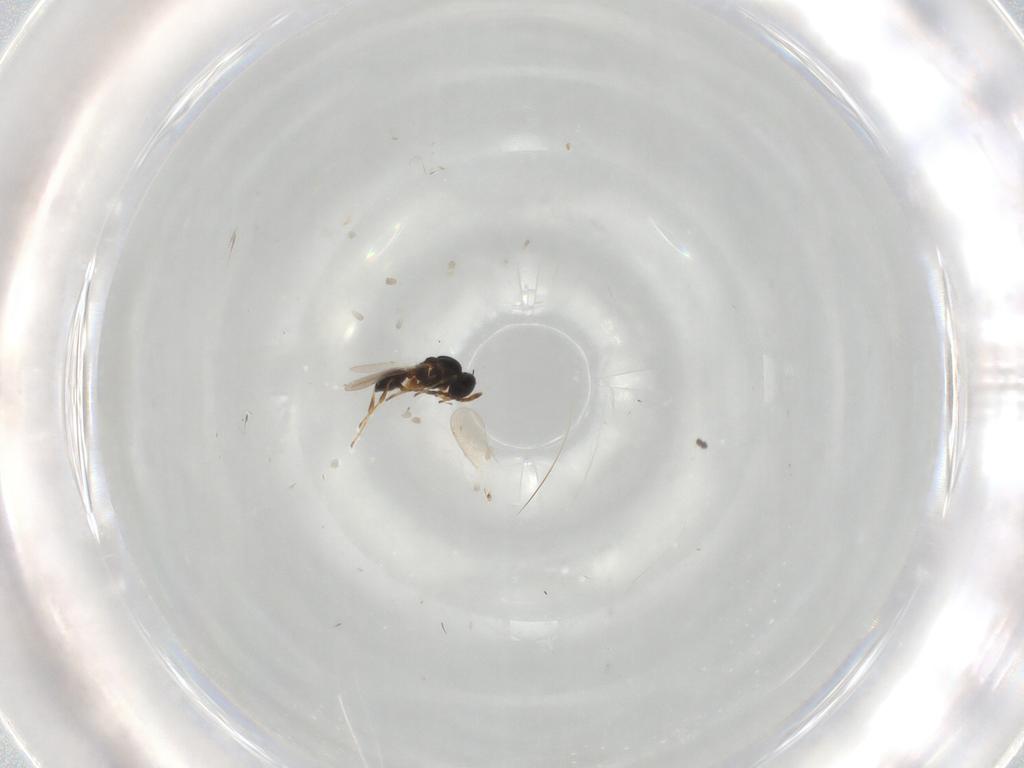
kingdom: Animalia
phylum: Arthropoda
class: Insecta
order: Hymenoptera
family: Platygastridae
